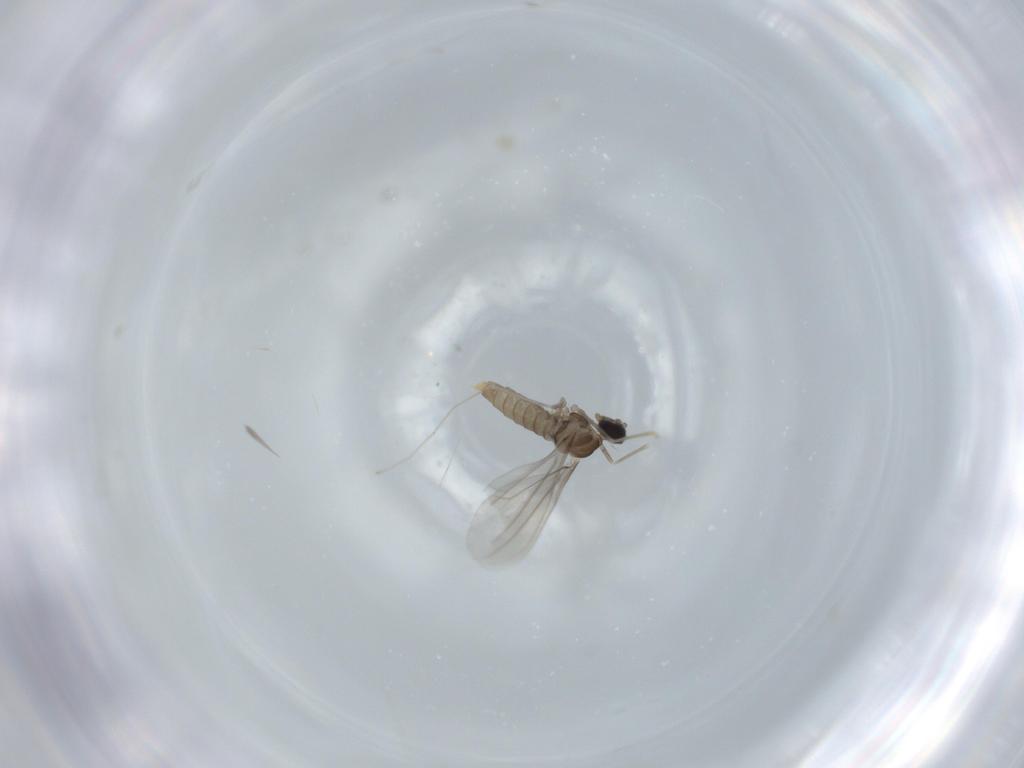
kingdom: Animalia
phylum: Arthropoda
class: Insecta
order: Diptera
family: Cecidomyiidae
